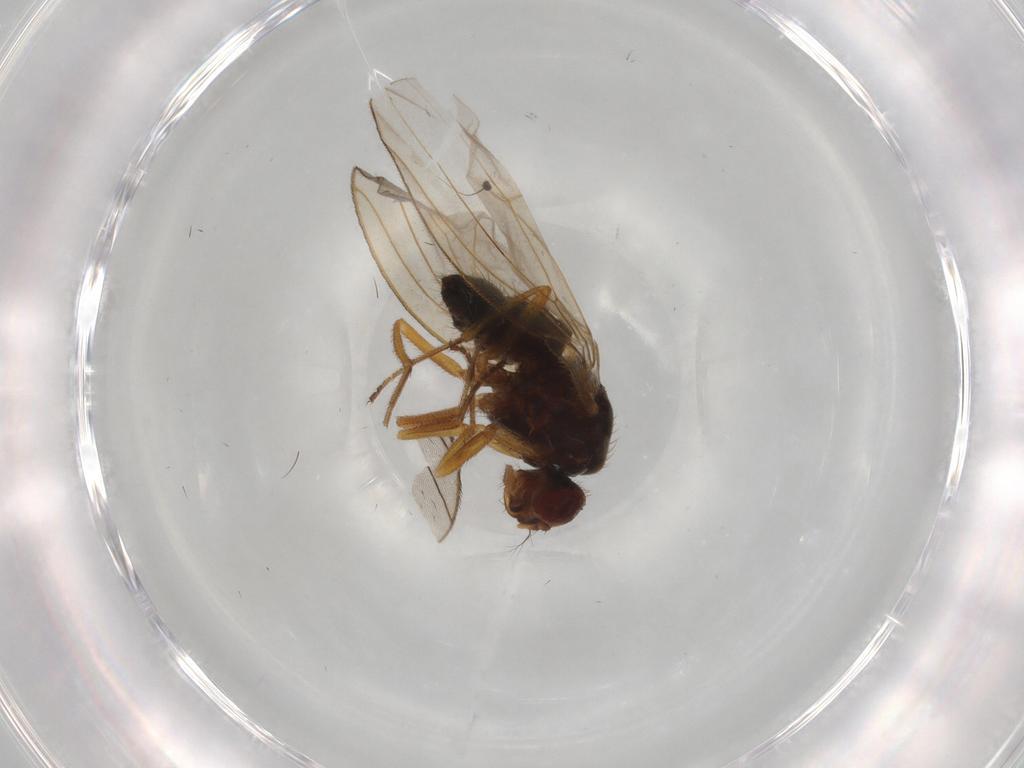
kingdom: Animalia
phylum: Arthropoda
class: Insecta
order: Diptera
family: Drosophilidae
